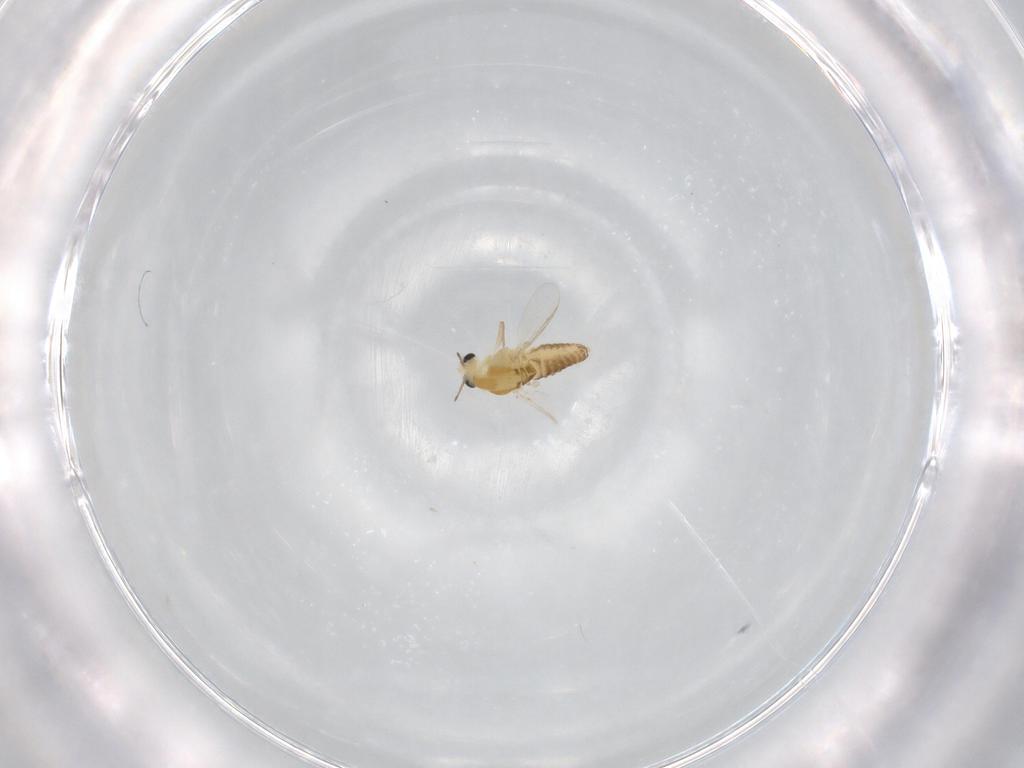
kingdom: Animalia
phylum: Arthropoda
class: Insecta
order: Diptera
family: Chironomidae
